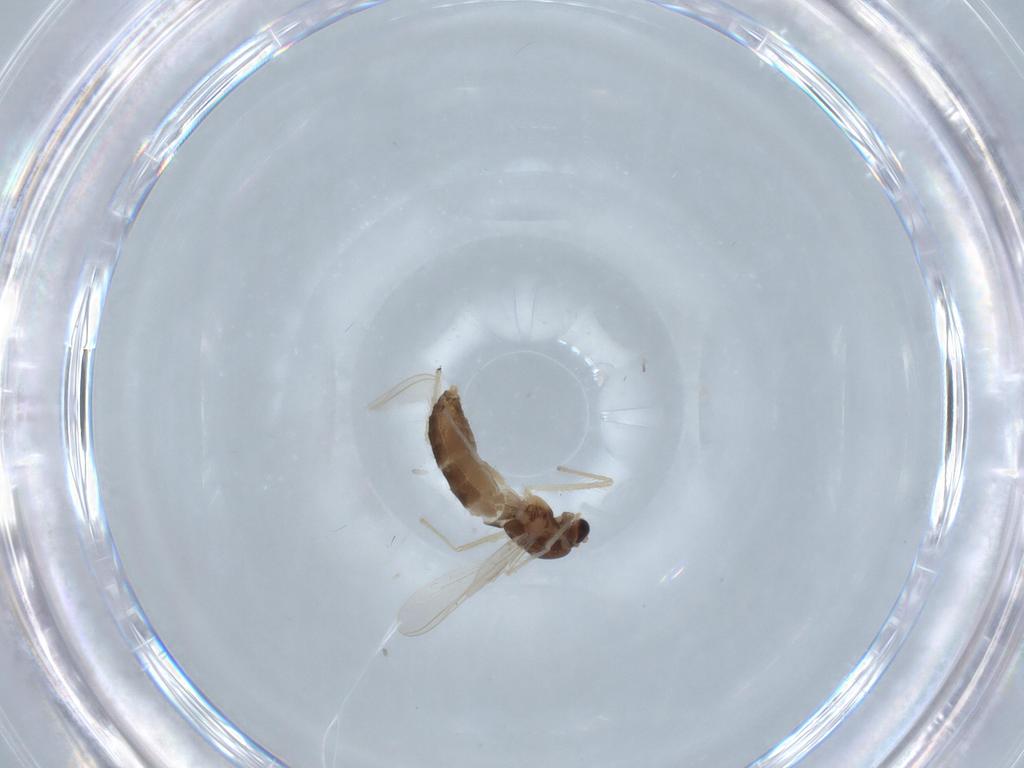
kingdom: Animalia
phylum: Arthropoda
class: Insecta
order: Diptera
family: Chironomidae
